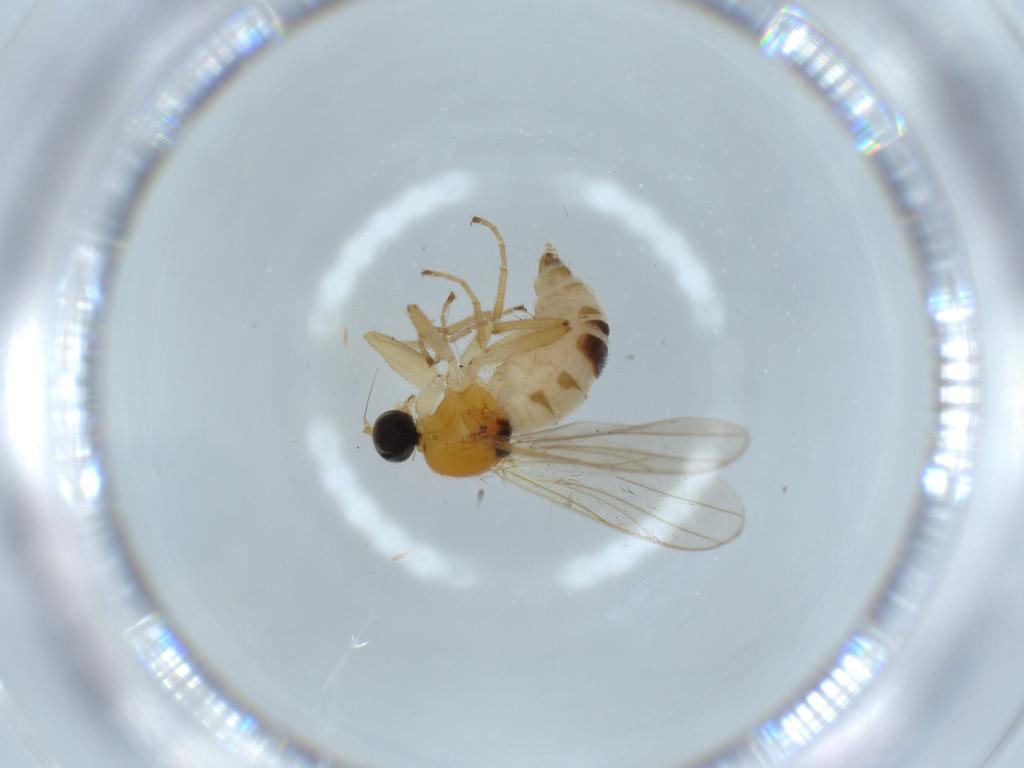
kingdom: Animalia
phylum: Arthropoda
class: Insecta
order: Diptera
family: Hybotidae
